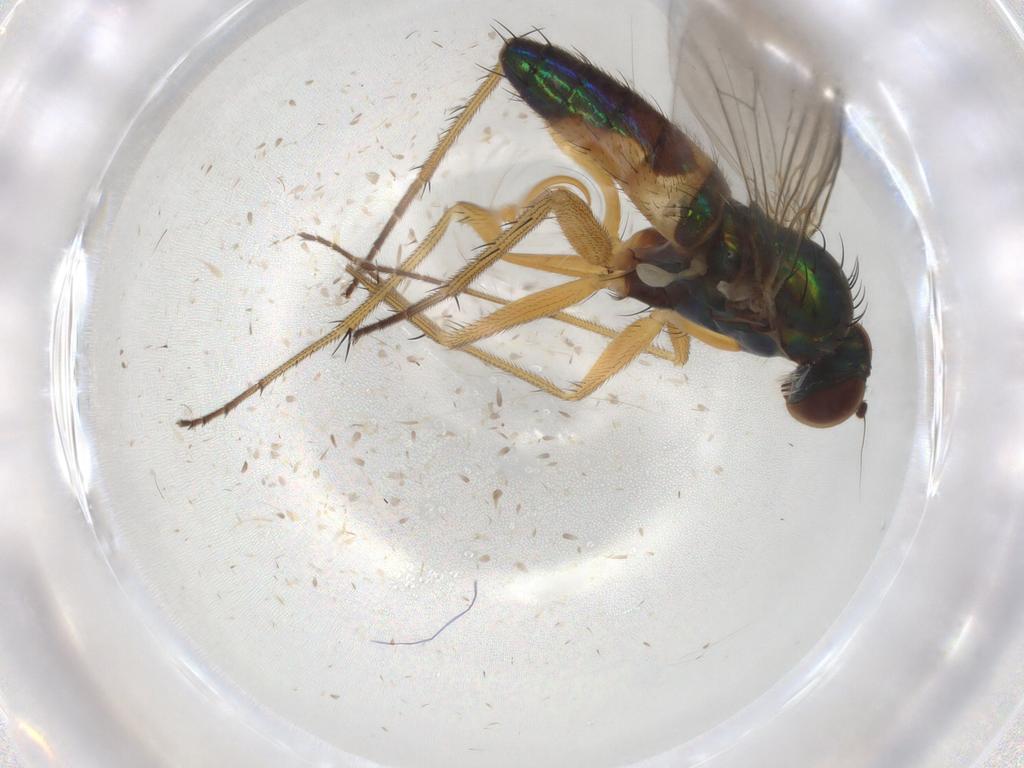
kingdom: Animalia
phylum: Arthropoda
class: Insecta
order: Diptera
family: Psychodidae
